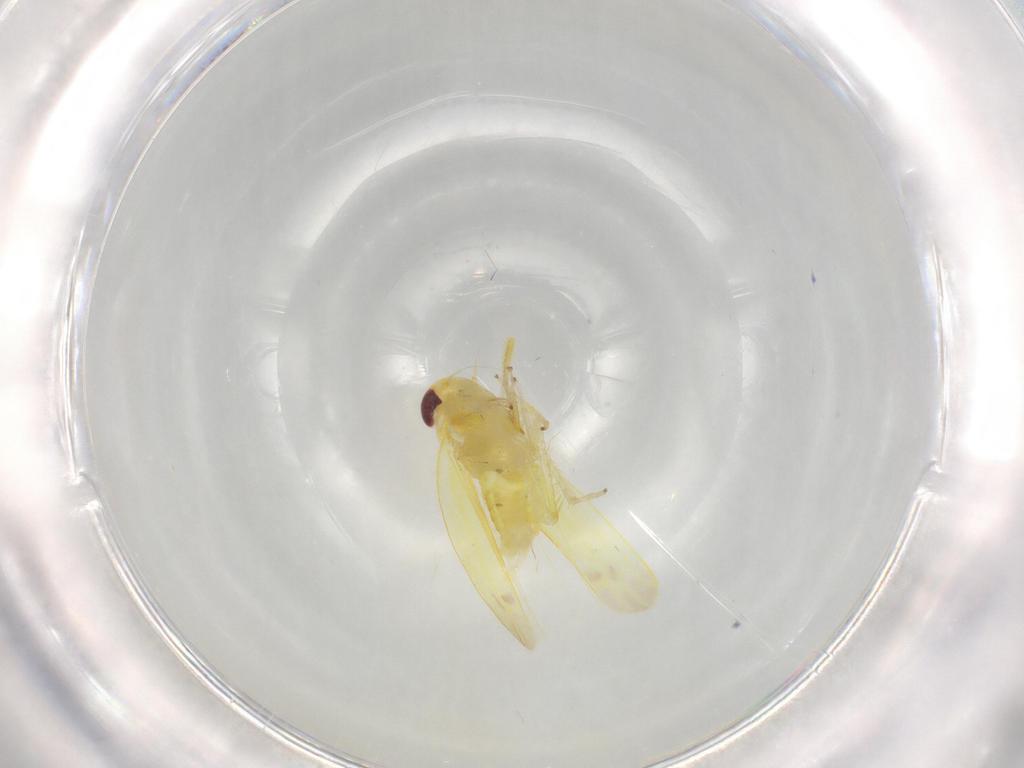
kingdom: Animalia
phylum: Arthropoda
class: Insecta
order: Hemiptera
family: Cicadellidae
